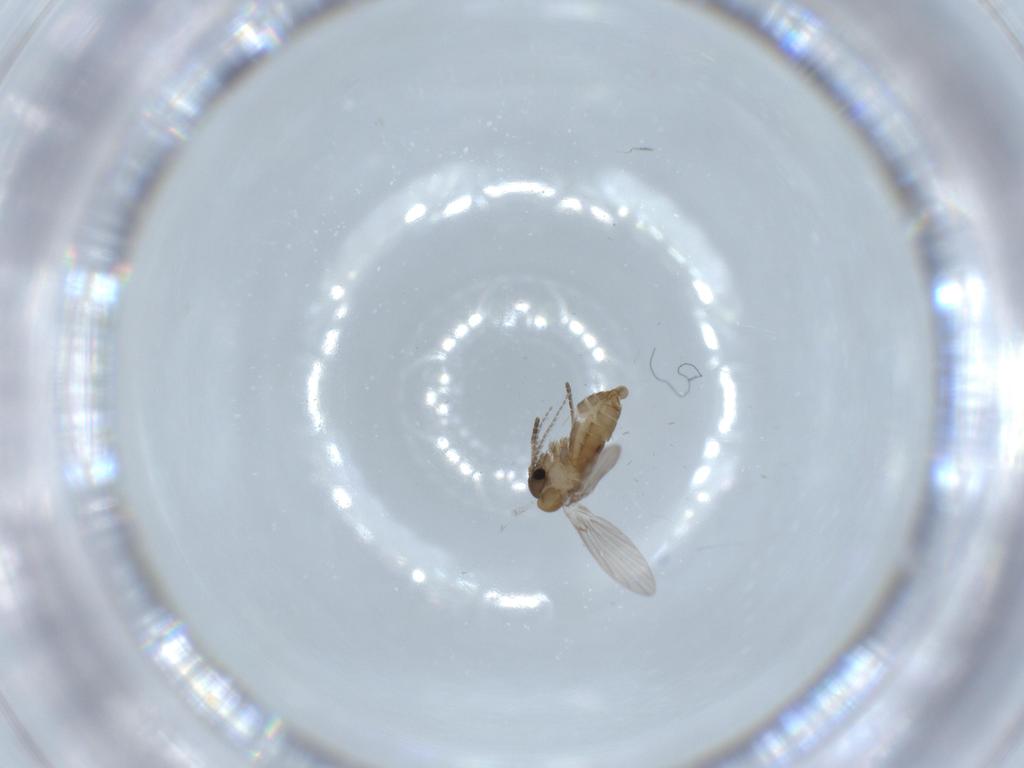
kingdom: Animalia
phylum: Arthropoda
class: Insecta
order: Diptera
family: Psychodidae
